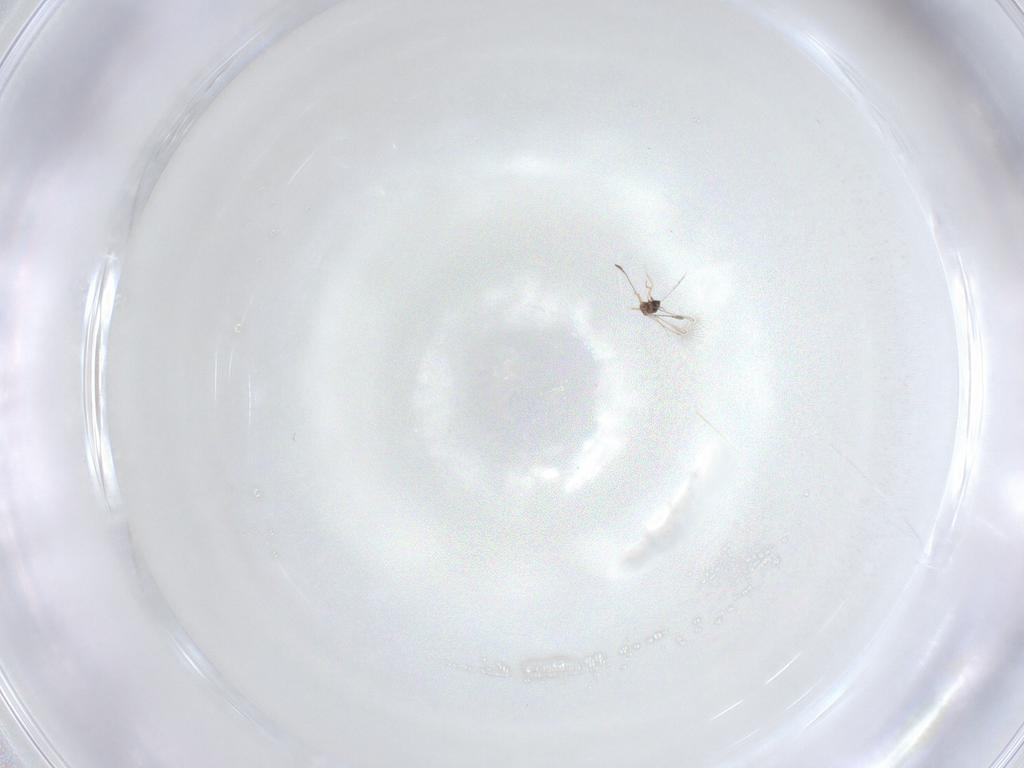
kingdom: Animalia
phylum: Arthropoda
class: Insecta
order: Diptera
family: Ceratopogonidae
